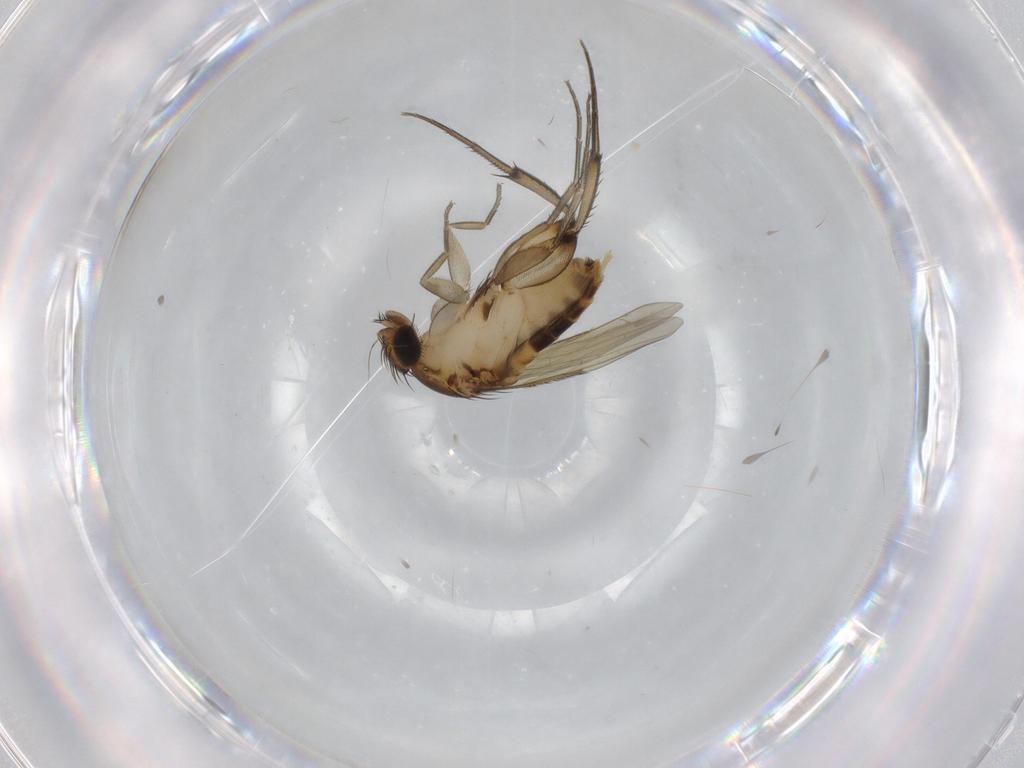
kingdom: Animalia
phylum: Arthropoda
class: Insecta
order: Diptera
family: Phoridae
